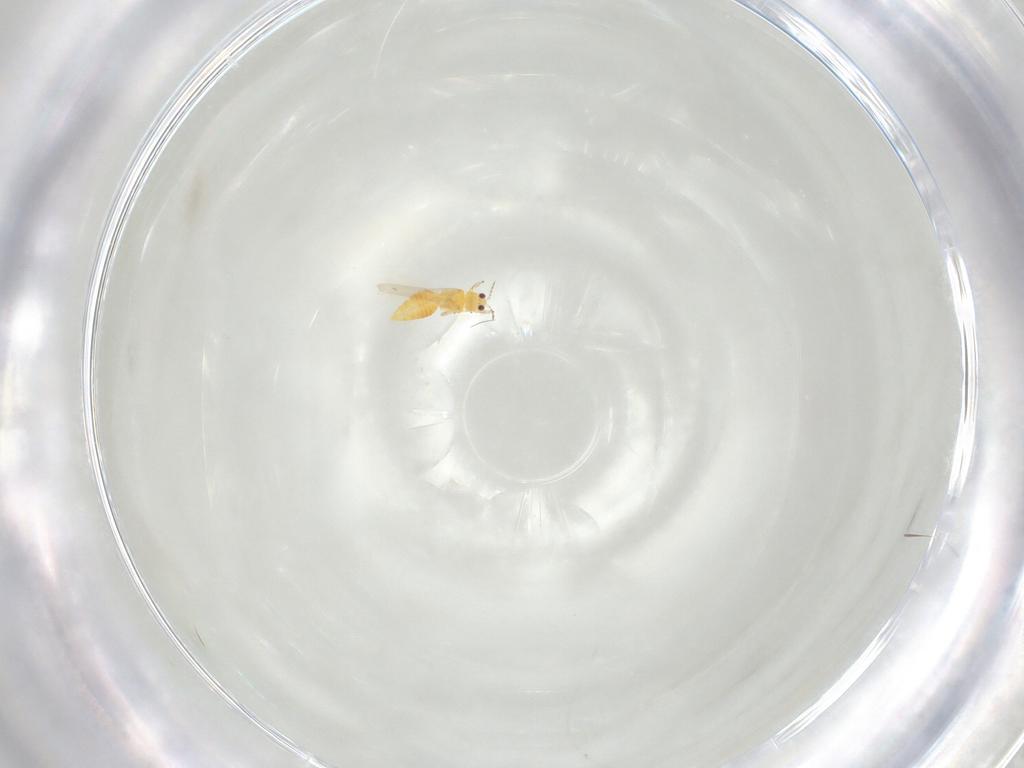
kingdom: Animalia
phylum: Arthropoda
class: Insecta
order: Thysanoptera
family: Thripidae
